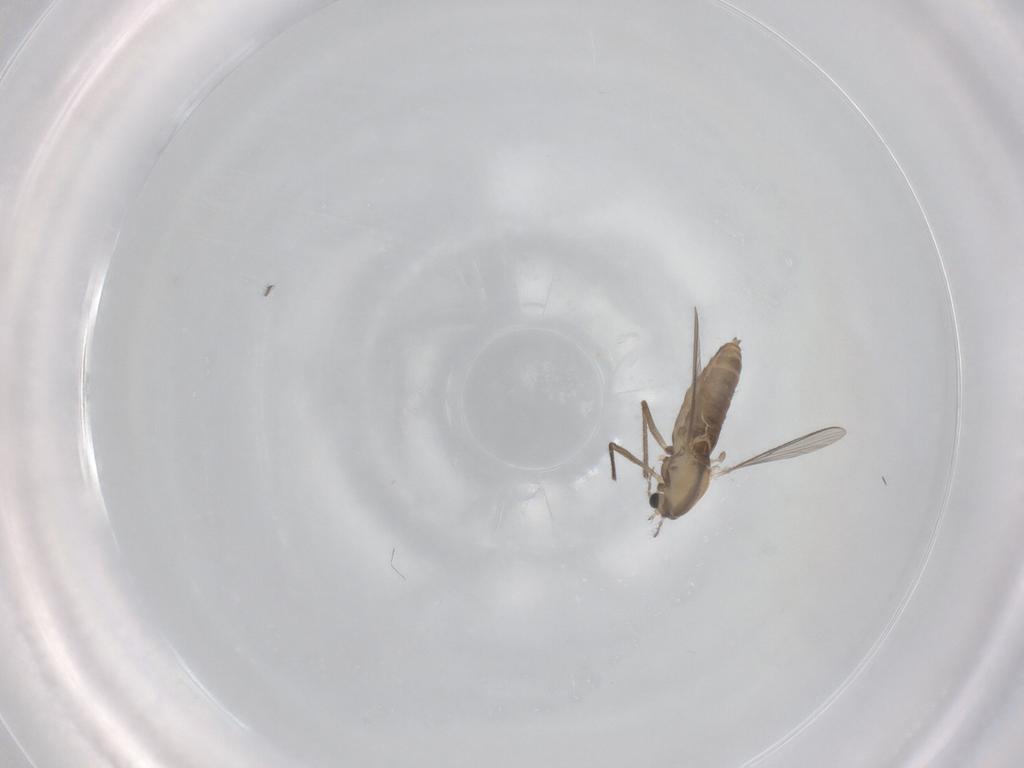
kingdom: Animalia
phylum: Arthropoda
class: Insecta
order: Diptera
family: Chironomidae
